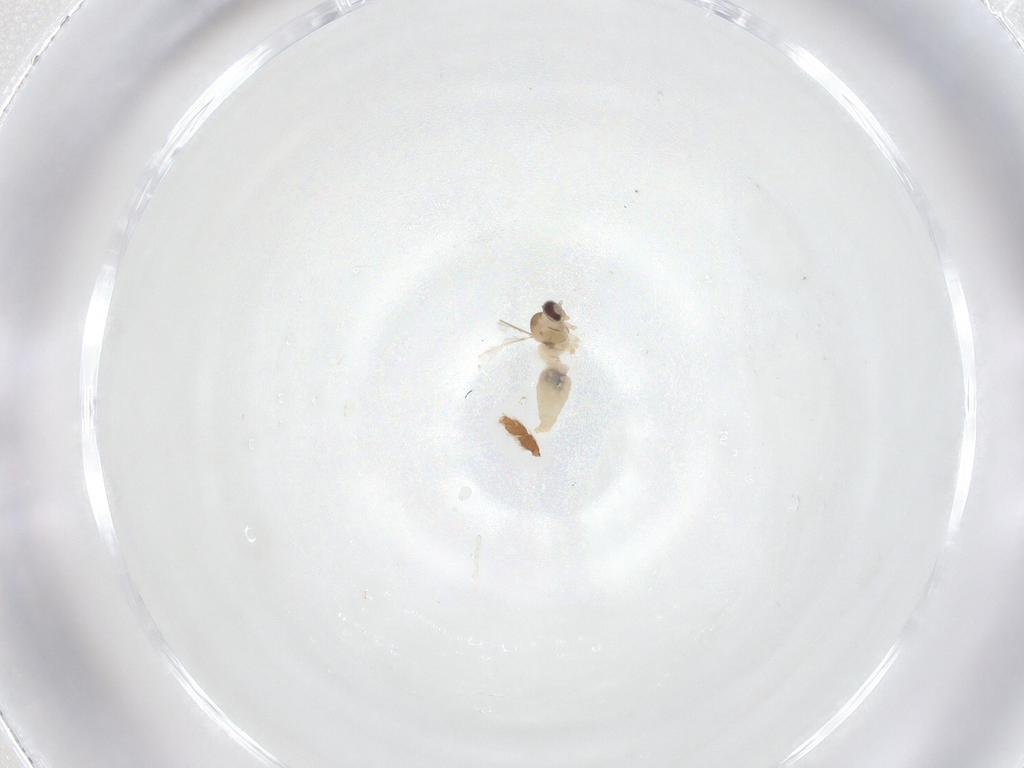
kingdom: Animalia
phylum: Arthropoda
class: Insecta
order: Diptera
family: Cecidomyiidae
